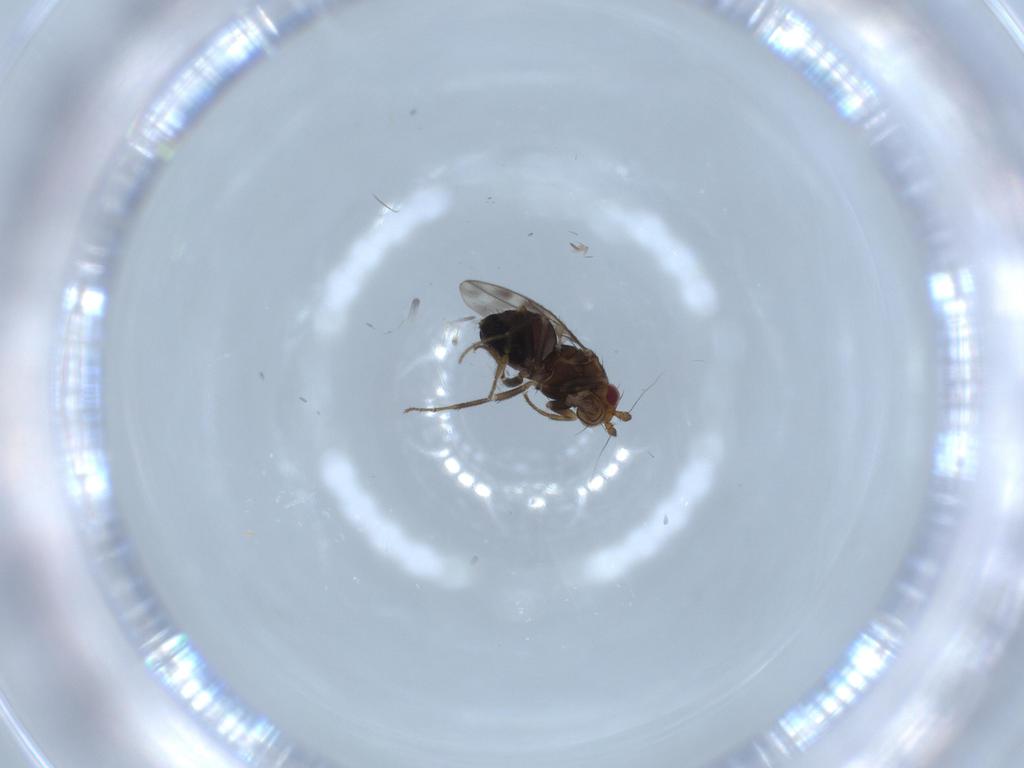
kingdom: Animalia
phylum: Arthropoda
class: Insecta
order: Diptera
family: Sphaeroceridae
